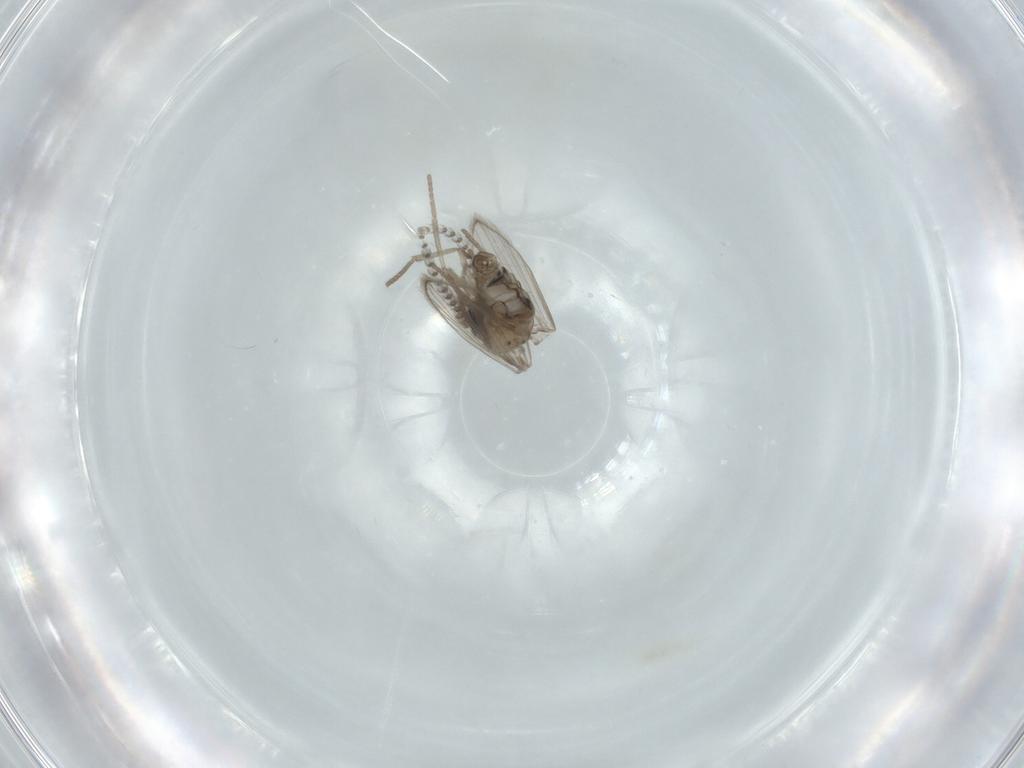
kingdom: Animalia
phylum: Arthropoda
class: Insecta
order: Diptera
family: Psychodidae
